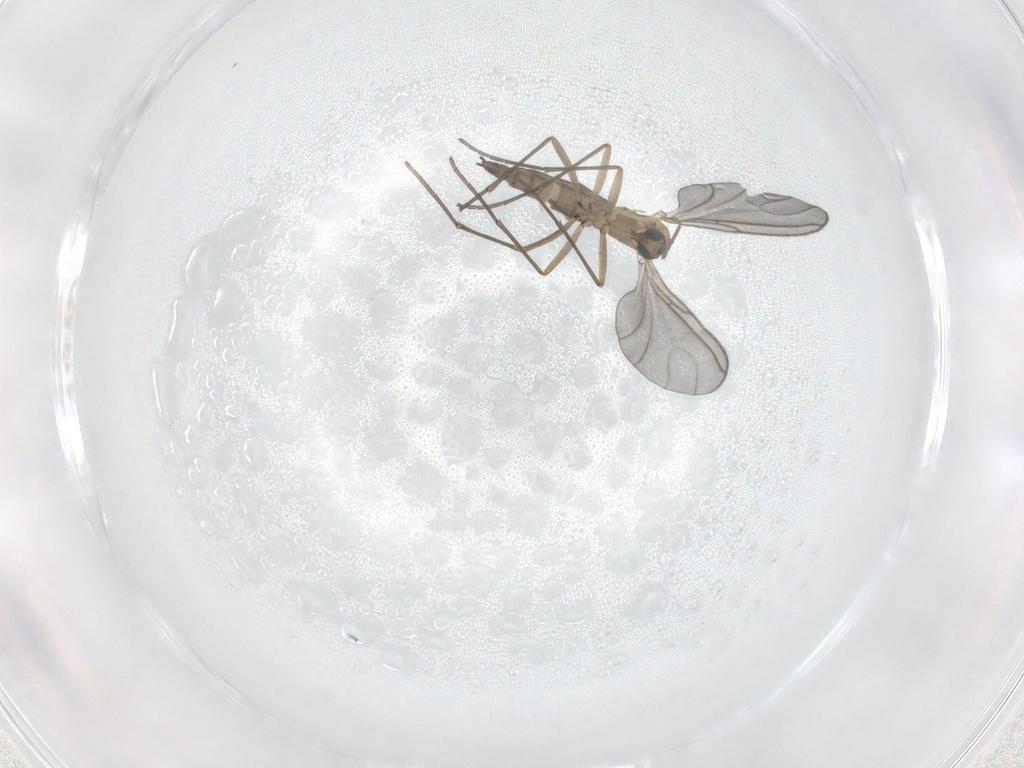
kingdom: Animalia
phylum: Arthropoda
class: Insecta
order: Diptera
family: Sciaridae
